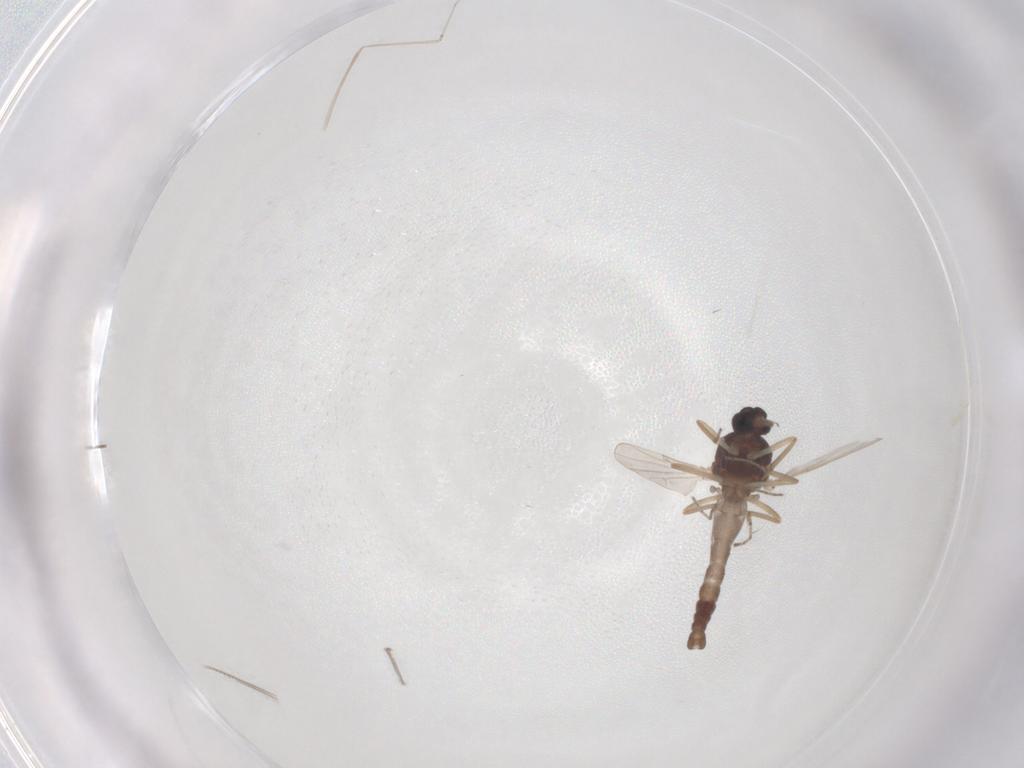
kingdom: Animalia
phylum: Arthropoda
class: Insecta
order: Diptera
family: Ceratopogonidae
